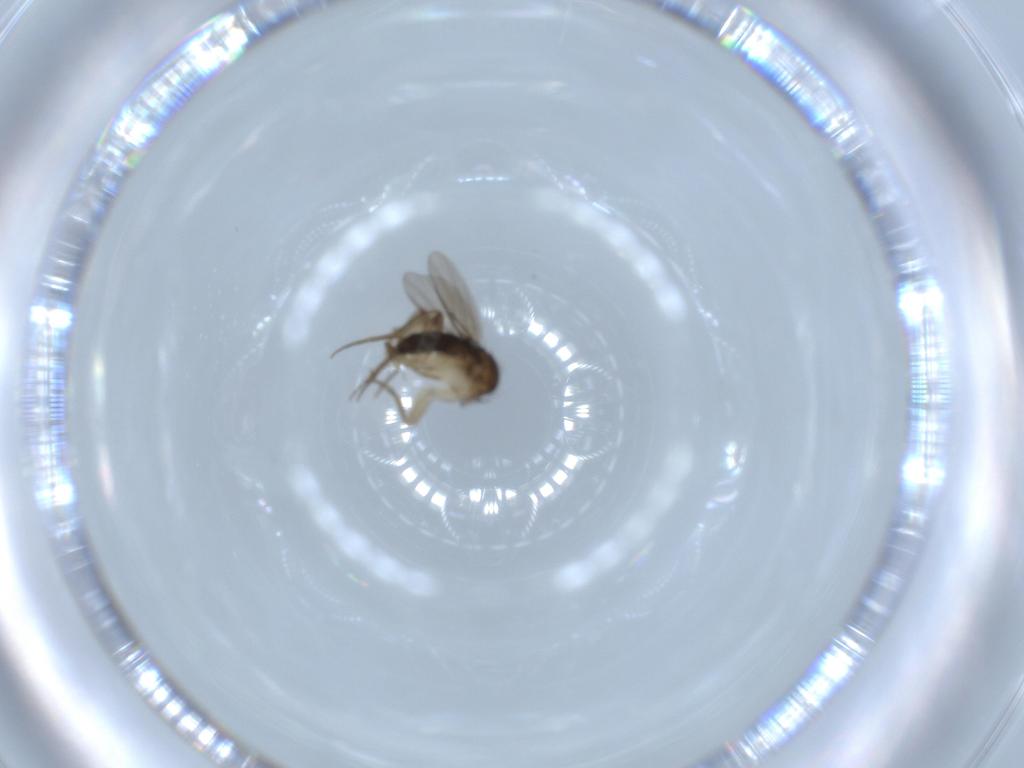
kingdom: Animalia
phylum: Arthropoda
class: Insecta
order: Diptera
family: Phoridae
